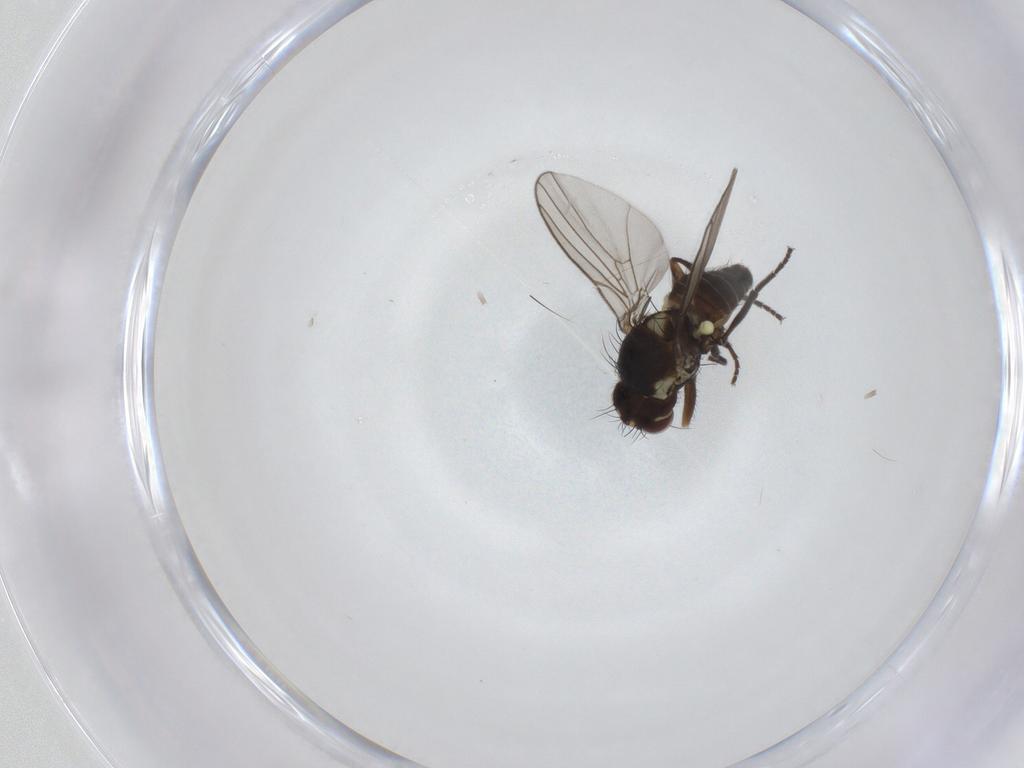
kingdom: Animalia
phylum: Arthropoda
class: Insecta
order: Diptera
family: Agromyzidae
